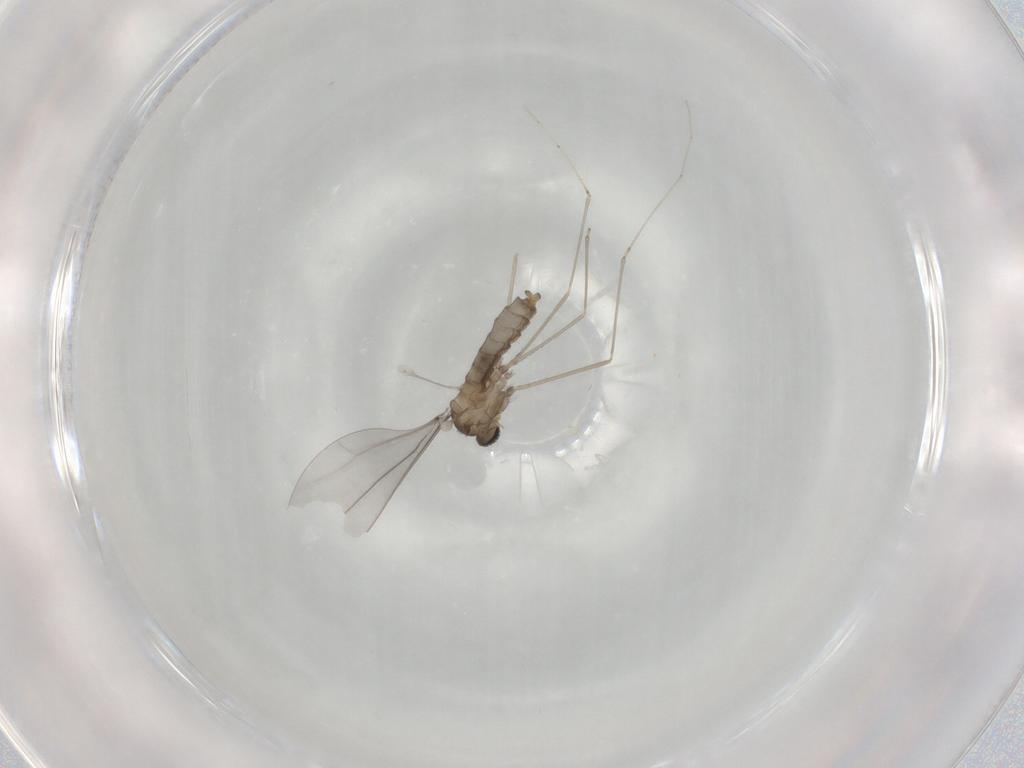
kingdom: Animalia
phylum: Arthropoda
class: Insecta
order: Diptera
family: Cecidomyiidae
